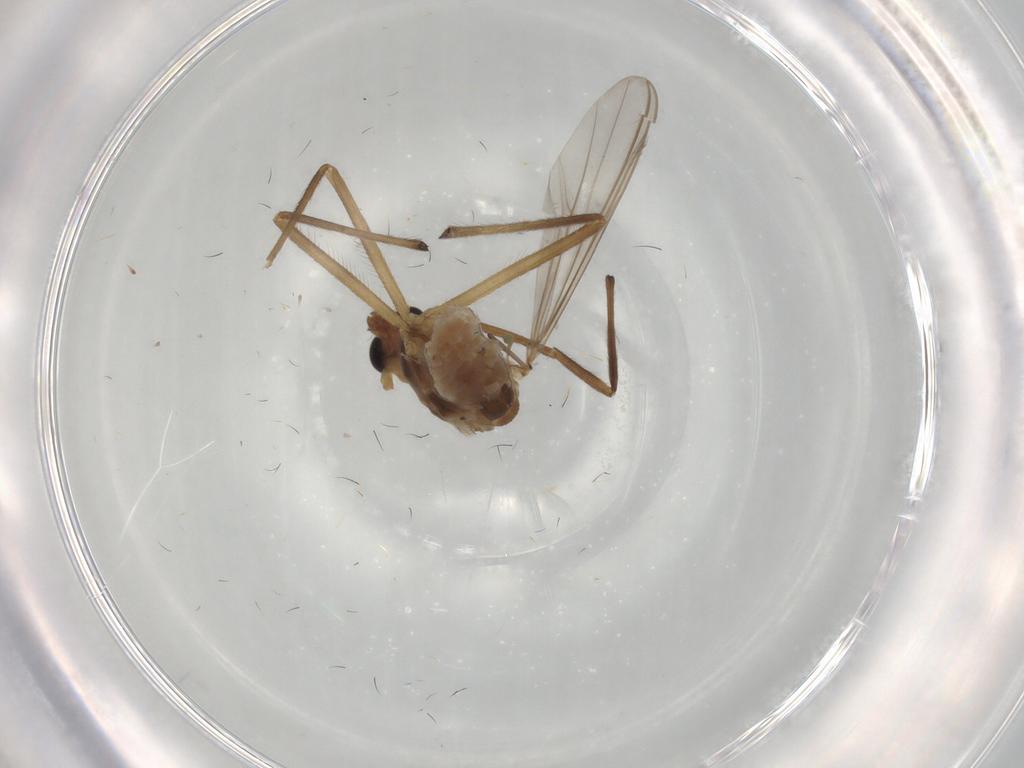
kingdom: Animalia
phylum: Arthropoda
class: Insecta
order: Diptera
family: Chironomidae
